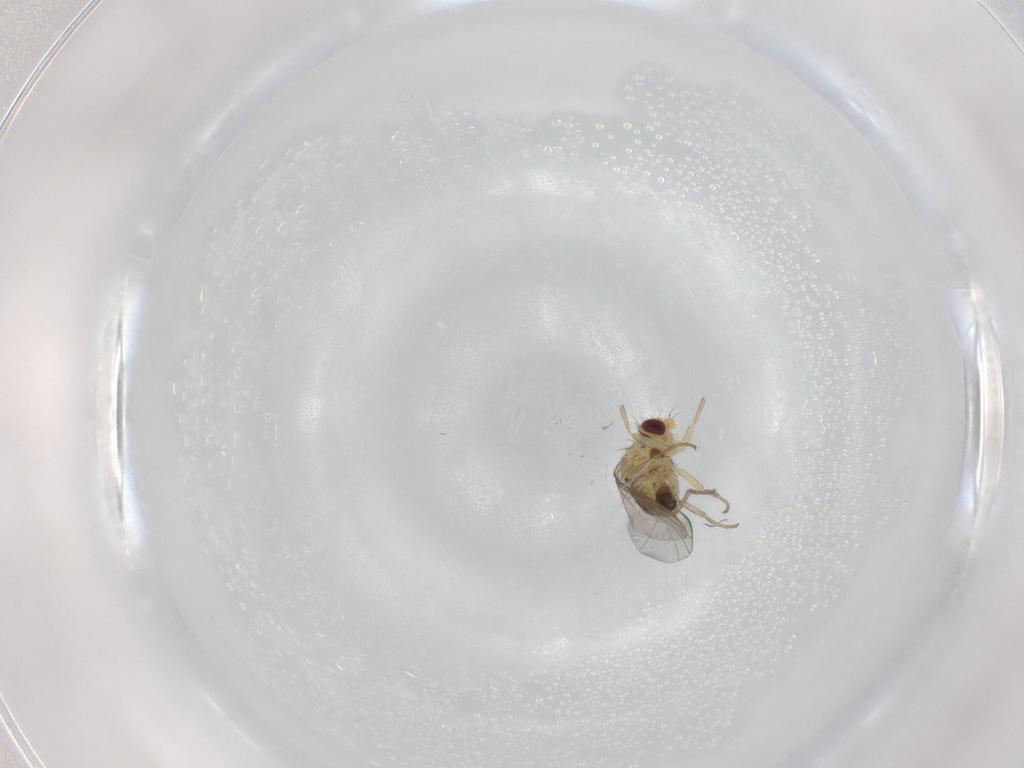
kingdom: Animalia
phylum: Arthropoda
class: Insecta
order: Diptera
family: Agromyzidae
